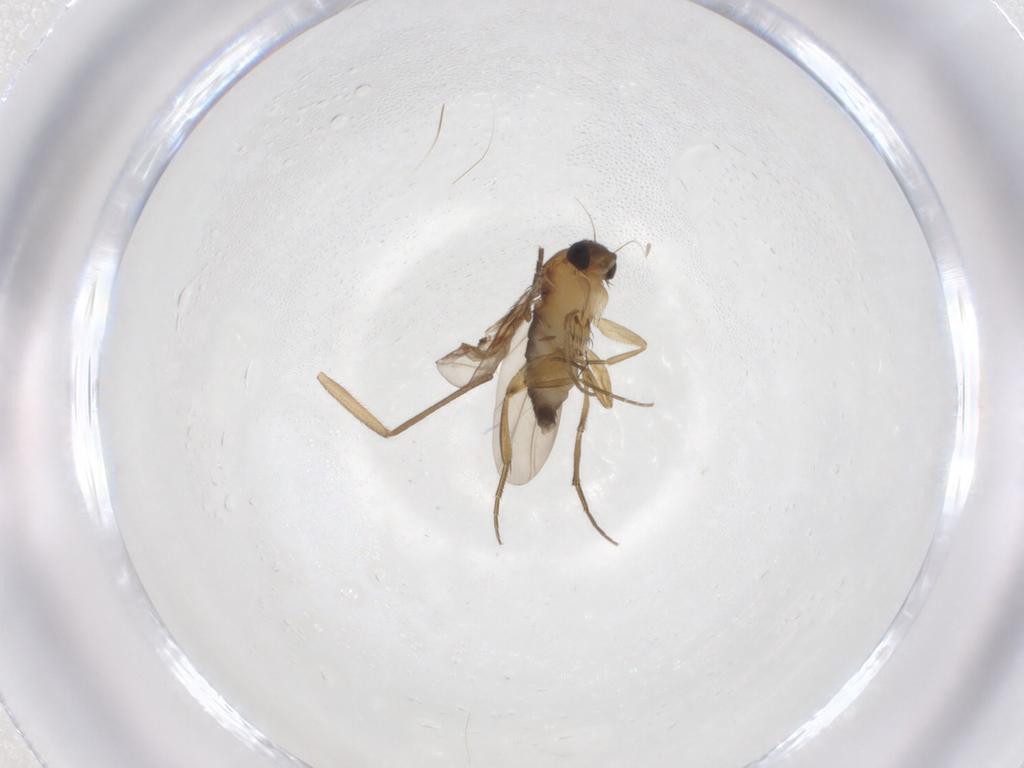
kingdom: Animalia
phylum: Arthropoda
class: Insecta
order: Diptera
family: Phoridae
